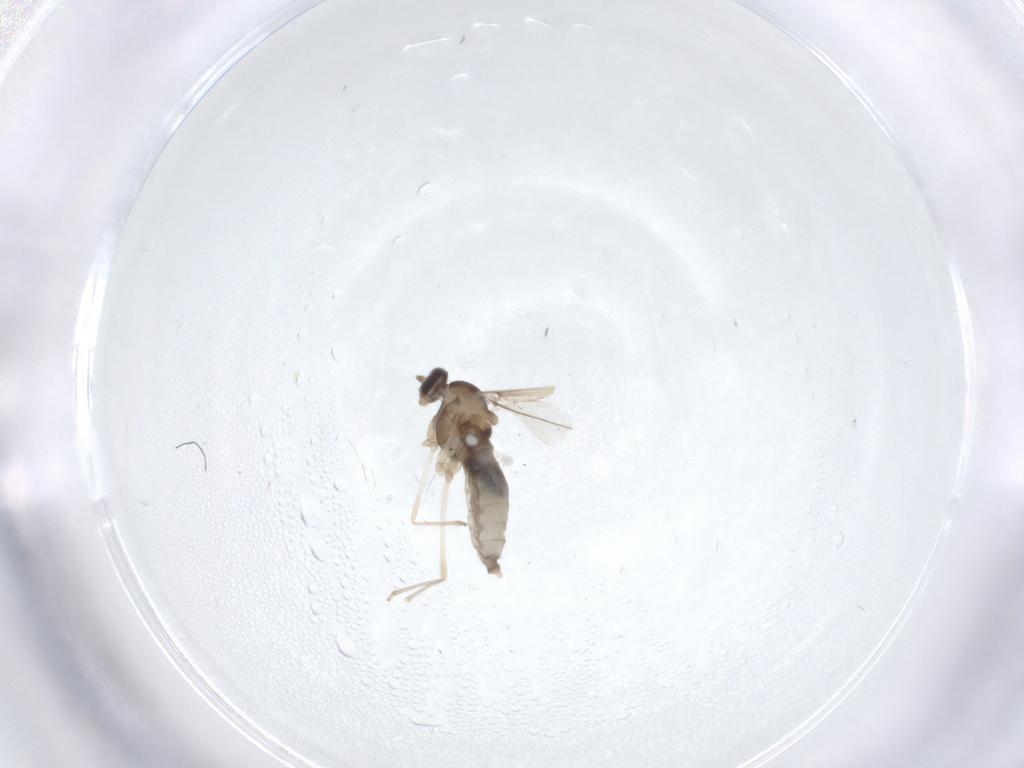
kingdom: Animalia
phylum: Arthropoda
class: Insecta
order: Diptera
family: Cecidomyiidae
